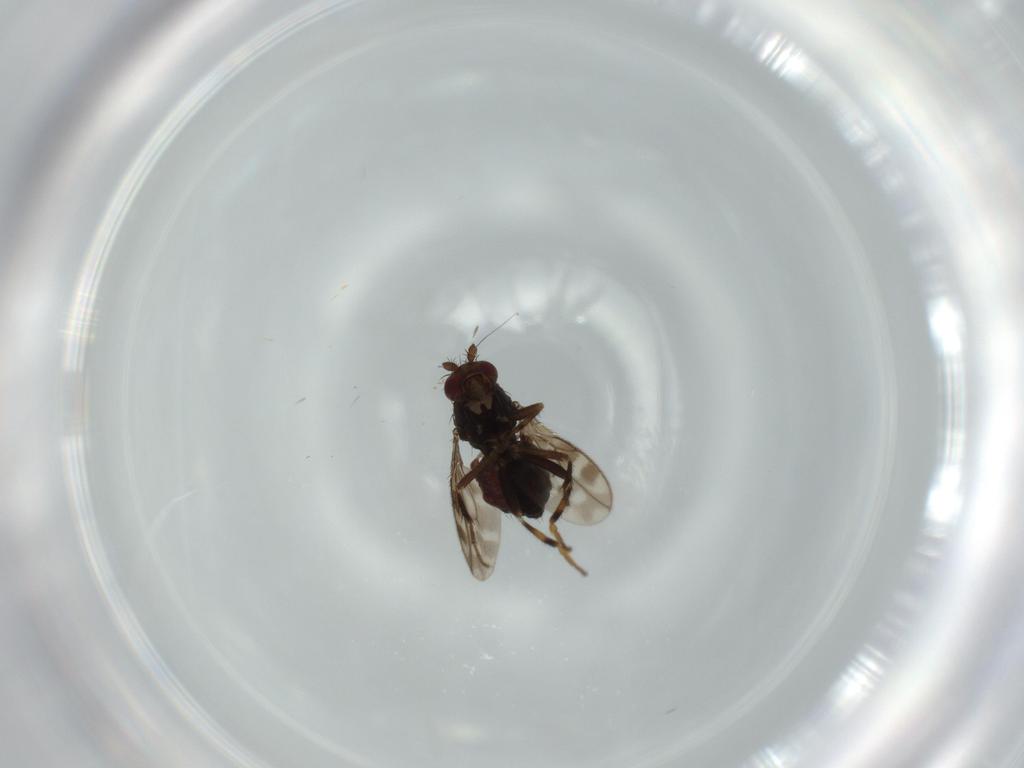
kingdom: Animalia
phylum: Arthropoda
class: Insecta
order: Diptera
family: Sphaeroceridae
